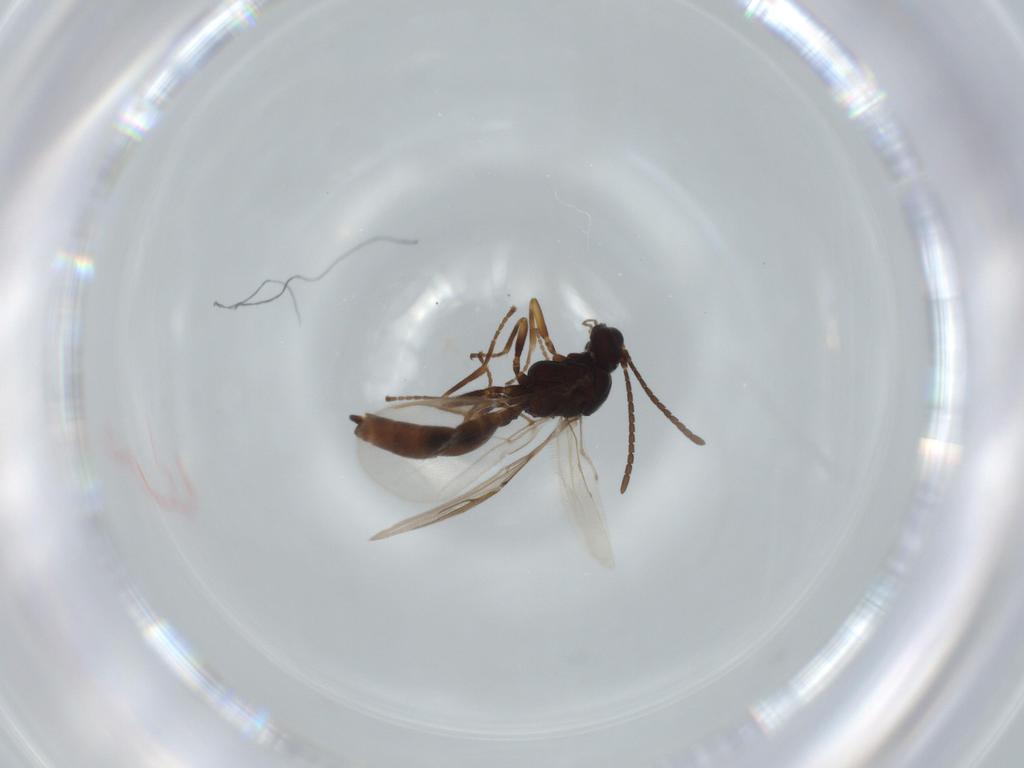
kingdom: Animalia
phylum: Arthropoda
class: Insecta
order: Hymenoptera
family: Braconidae
